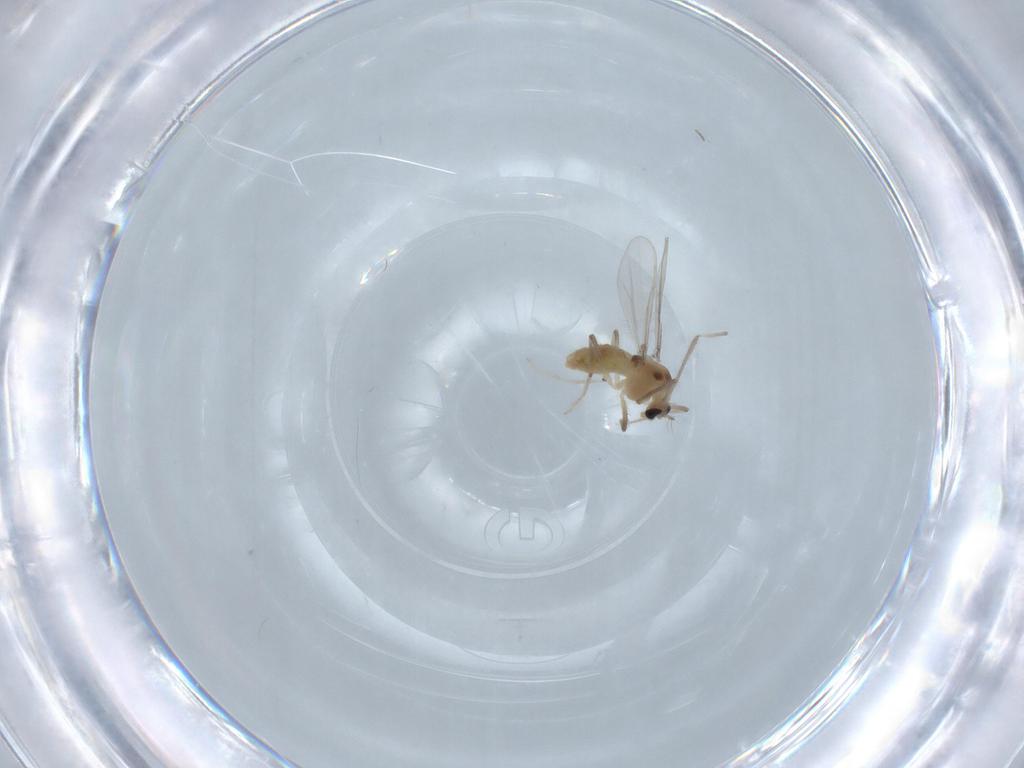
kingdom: Animalia
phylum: Arthropoda
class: Insecta
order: Diptera
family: Chironomidae
